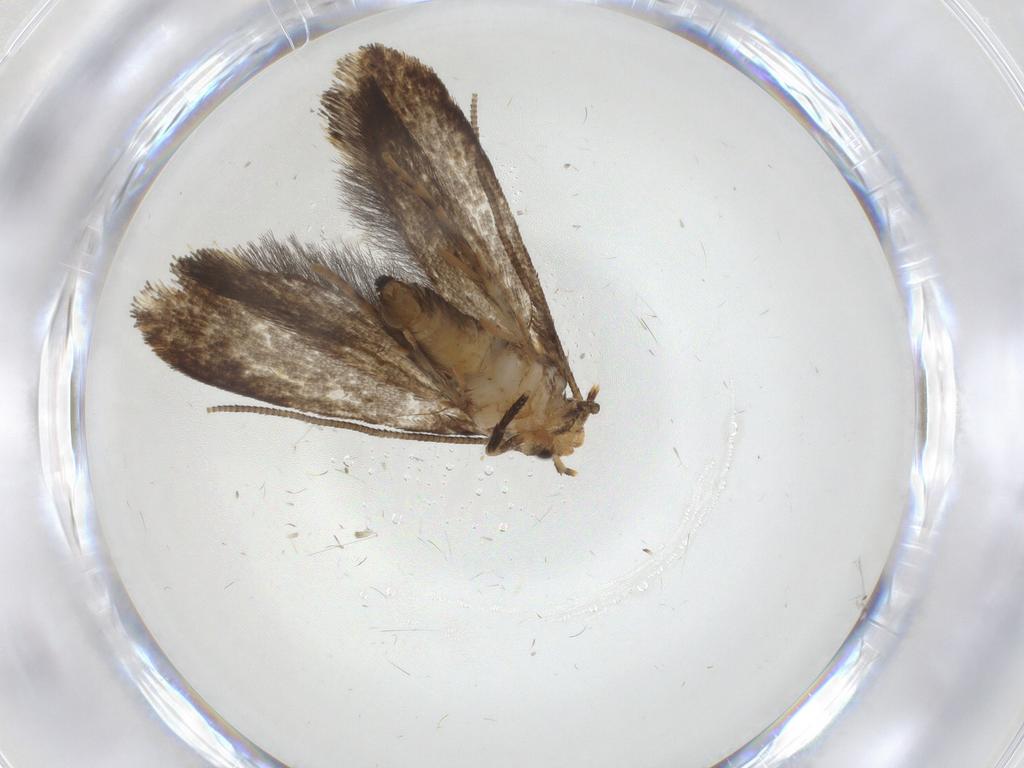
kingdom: Animalia
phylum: Arthropoda
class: Insecta
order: Lepidoptera
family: Tineidae
